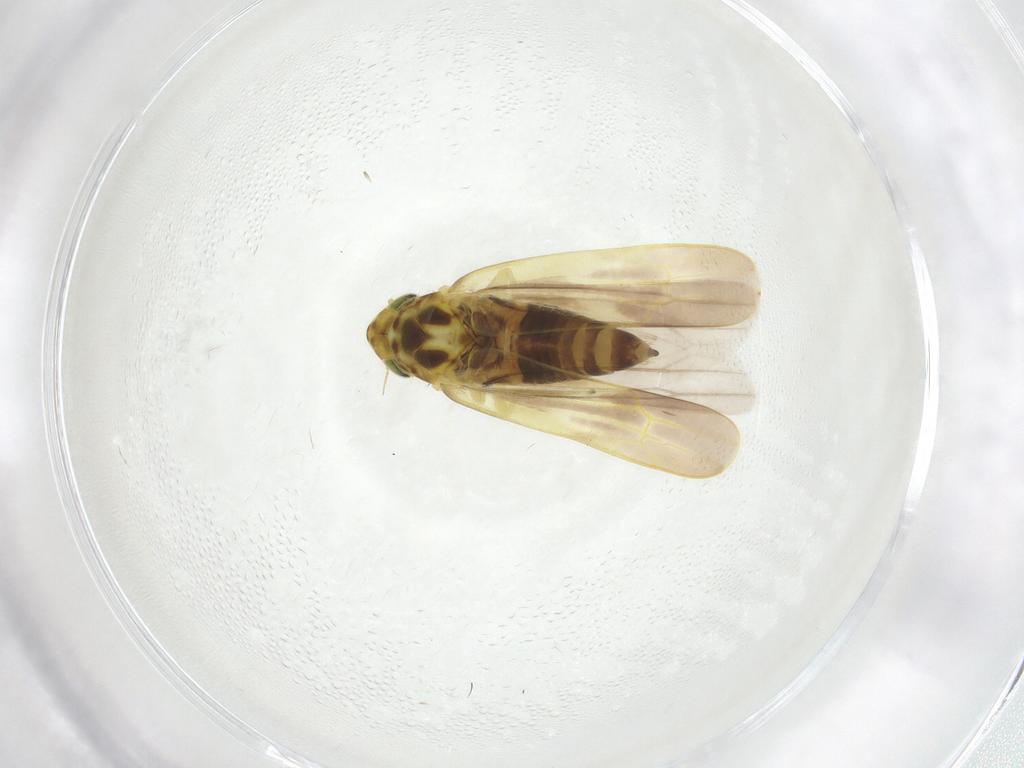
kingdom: Animalia
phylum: Arthropoda
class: Insecta
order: Hemiptera
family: Cicadellidae
